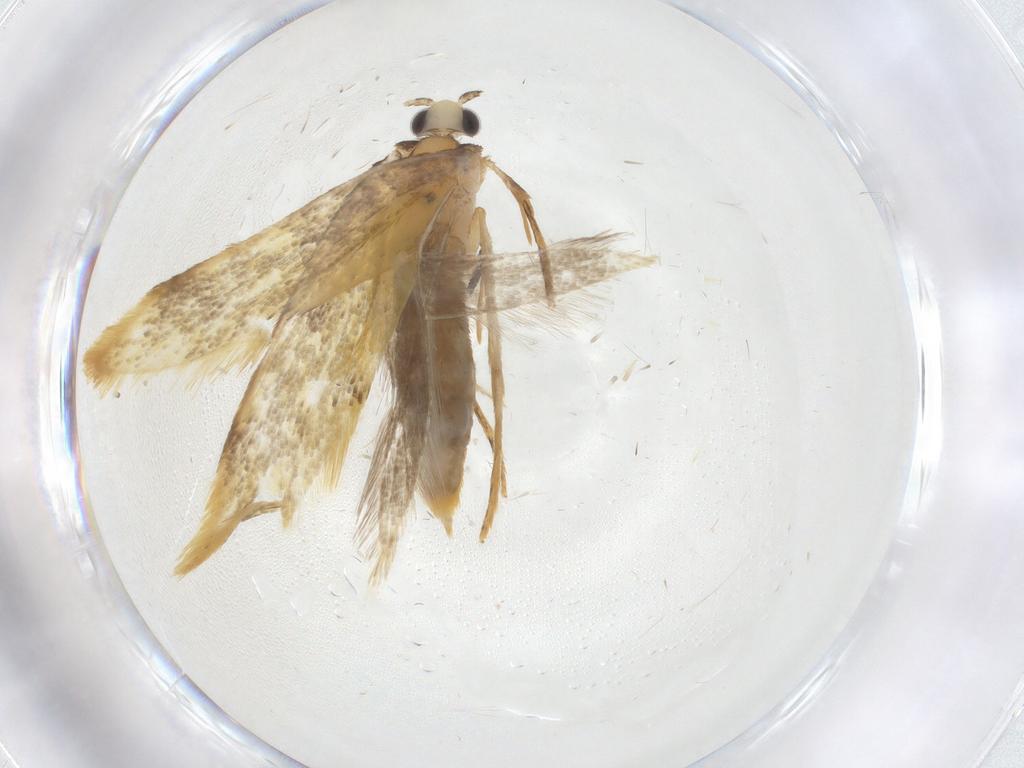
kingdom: Animalia
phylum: Arthropoda
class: Insecta
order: Lepidoptera
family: Tineidae
